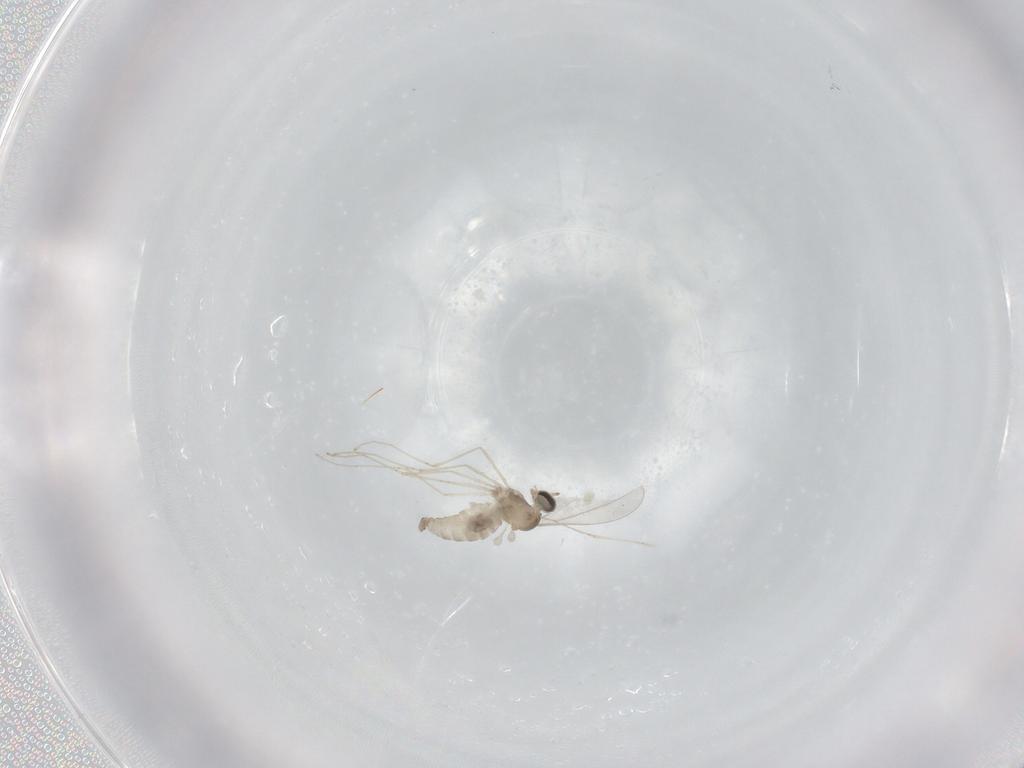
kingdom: Animalia
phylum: Arthropoda
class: Insecta
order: Diptera
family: Cecidomyiidae
